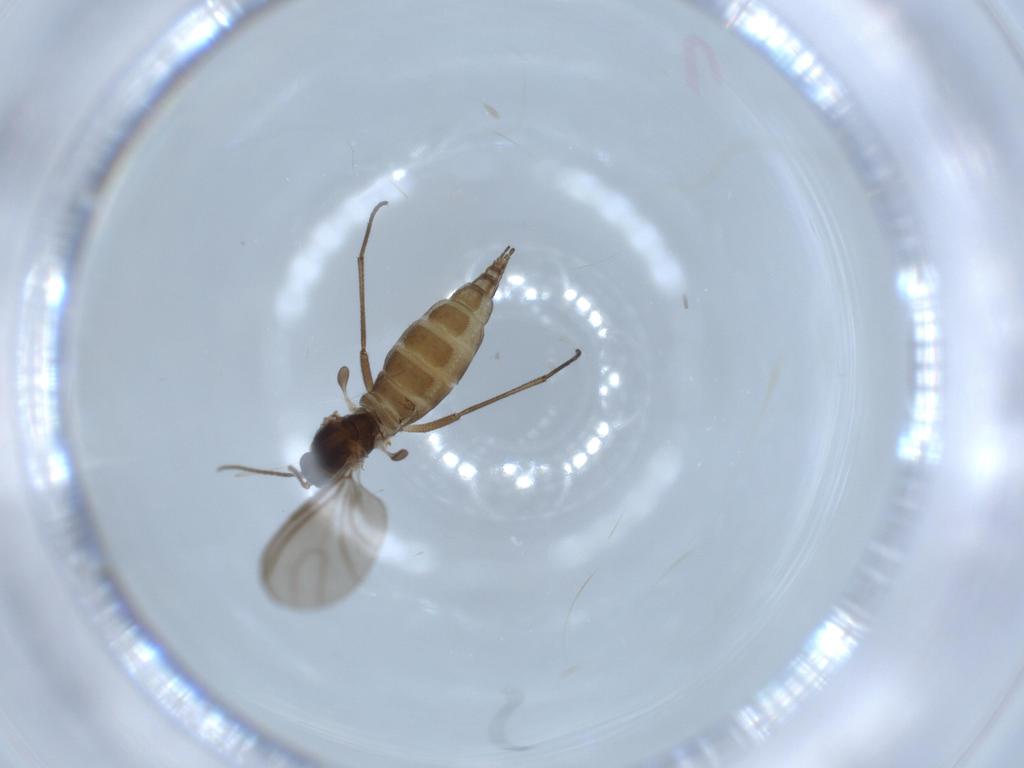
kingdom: Animalia
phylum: Arthropoda
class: Insecta
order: Diptera
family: Sciaridae
